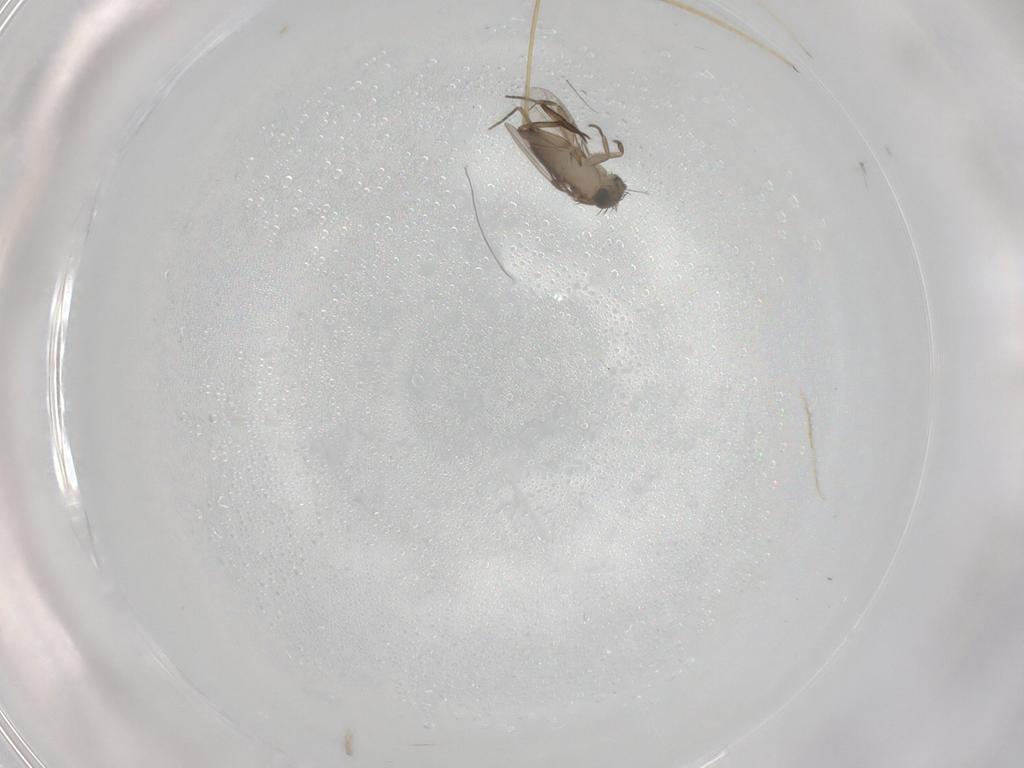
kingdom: Animalia
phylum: Arthropoda
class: Insecta
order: Diptera
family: Phoridae
